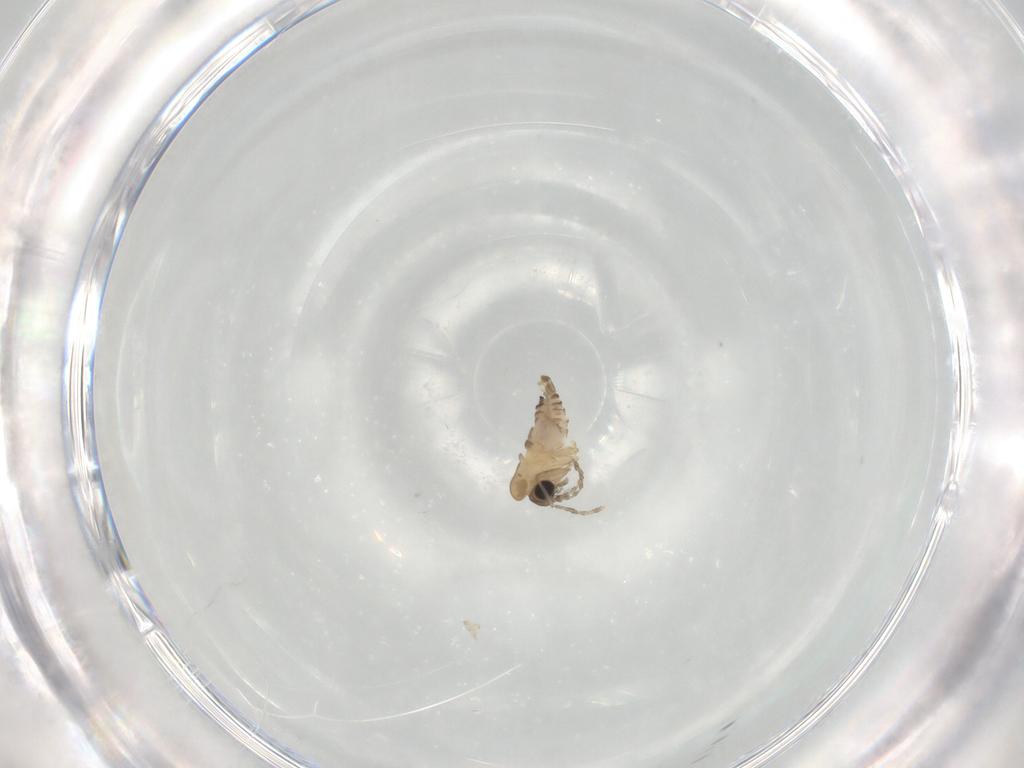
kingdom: Animalia
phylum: Arthropoda
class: Insecta
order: Diptera
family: Psychodidae
